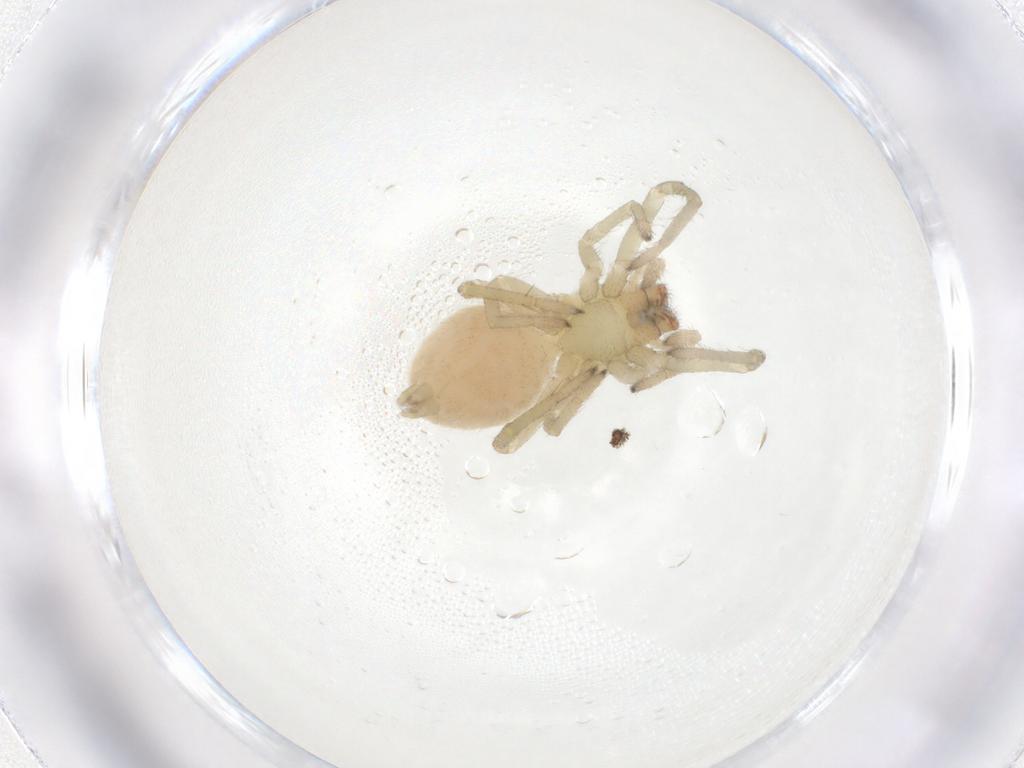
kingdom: Animalia
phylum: Arthropoda
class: Arachnida
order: Araneae
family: Cheiracanthiidae
